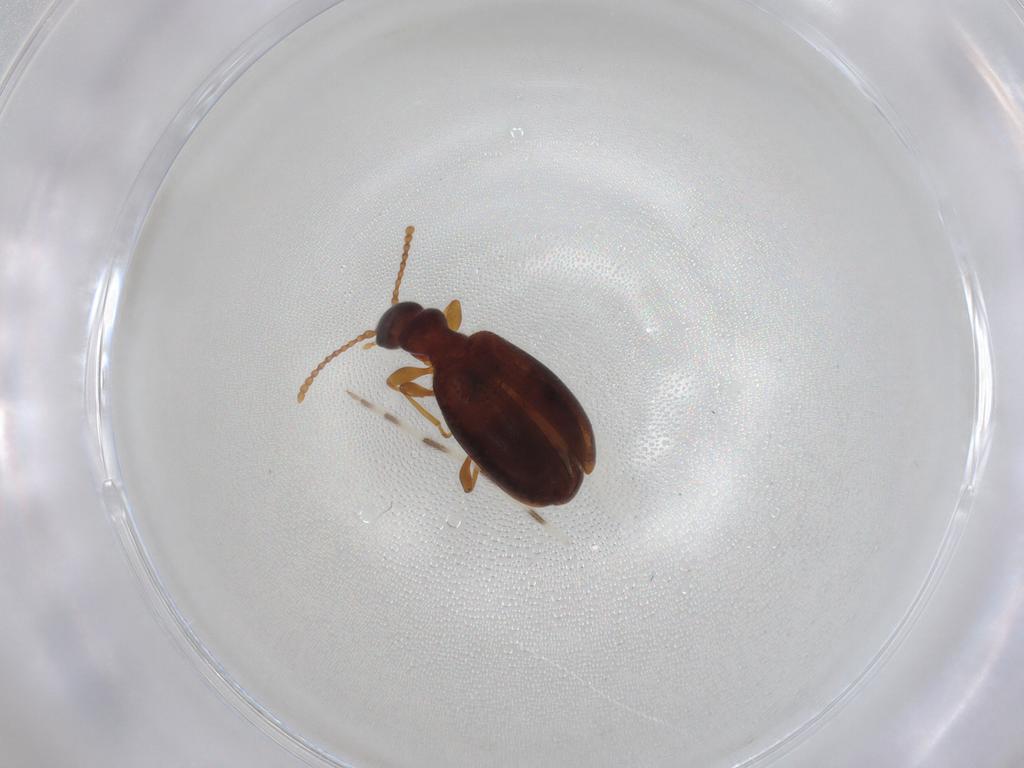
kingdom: Animalia
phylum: Arthropoda
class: Insecta
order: Coleoptera
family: Anthicidae
